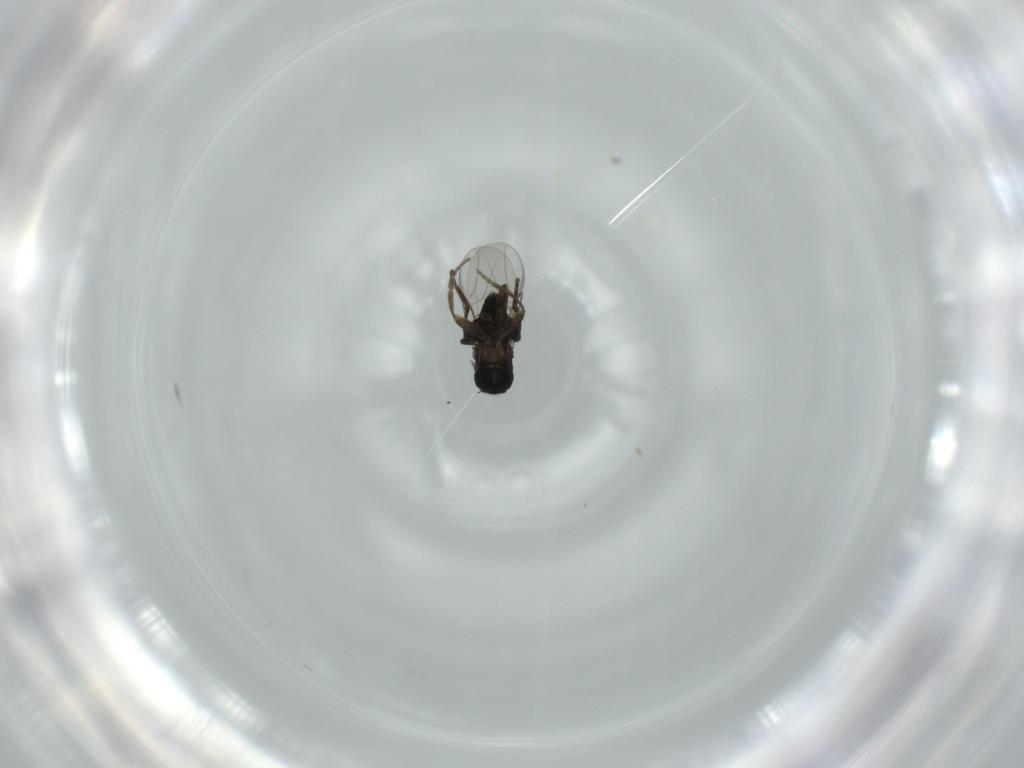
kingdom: Animalia
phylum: Arthropoda
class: Insecta
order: Diptera
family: Phoridae
